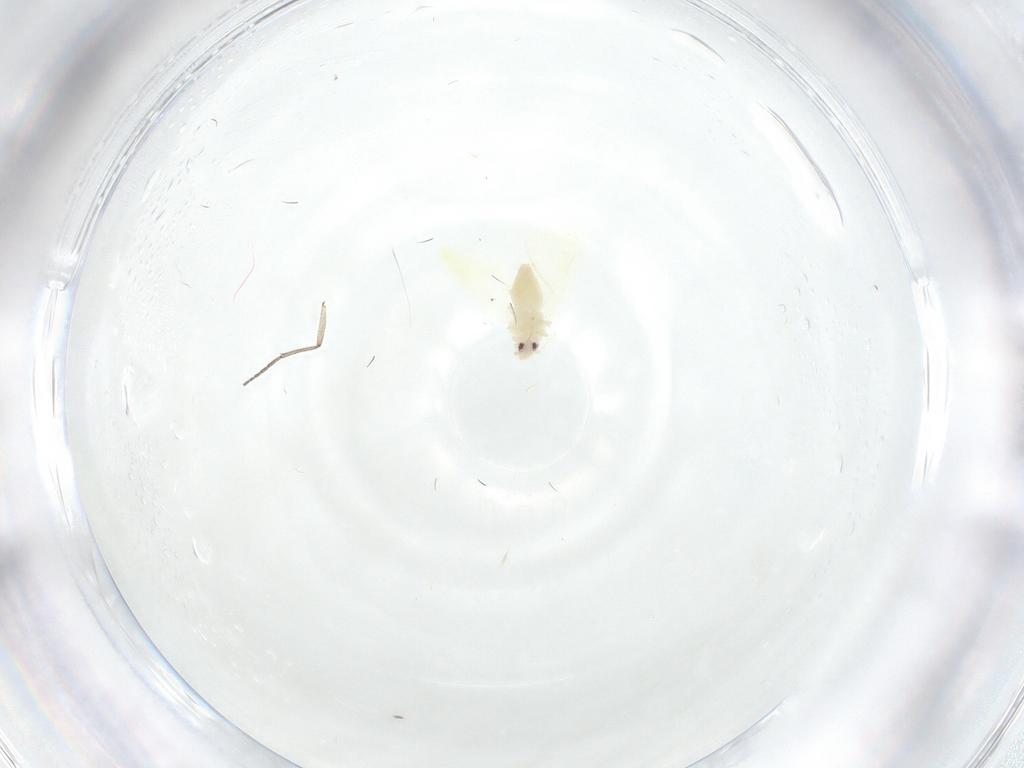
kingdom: Animalia
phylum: Arthropoda
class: Insecta
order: Hemiptera
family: Aleyrodidae
